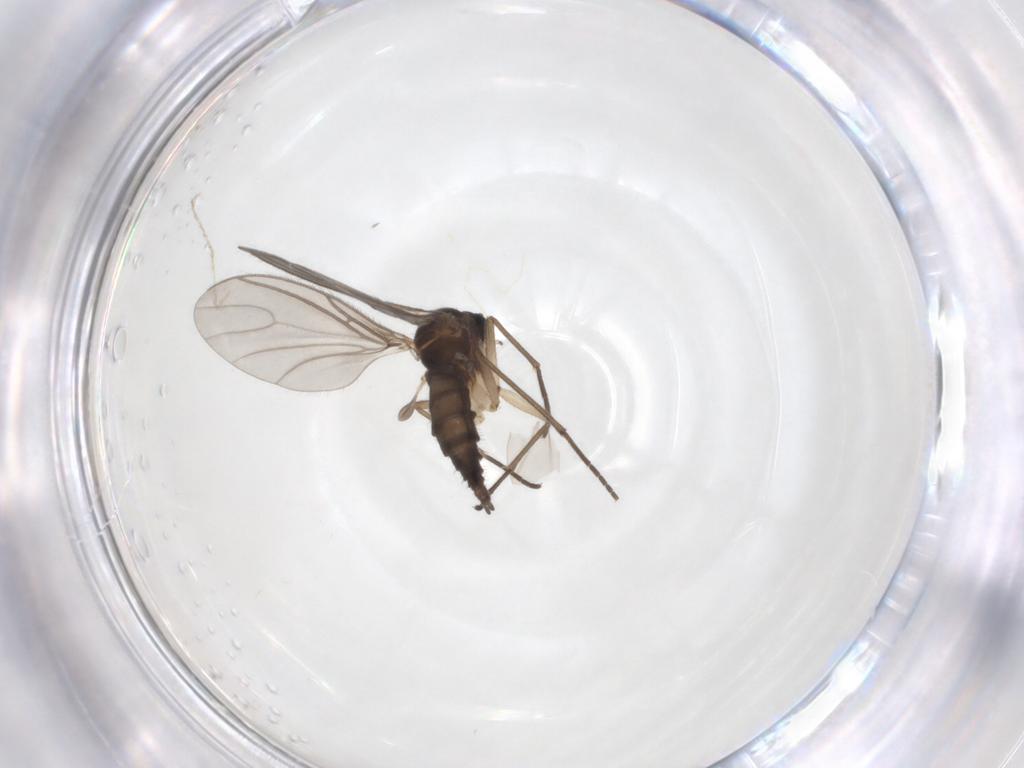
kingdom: Animalia
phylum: Arthropoda
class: Insecta
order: Diptera
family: Sciaridae
